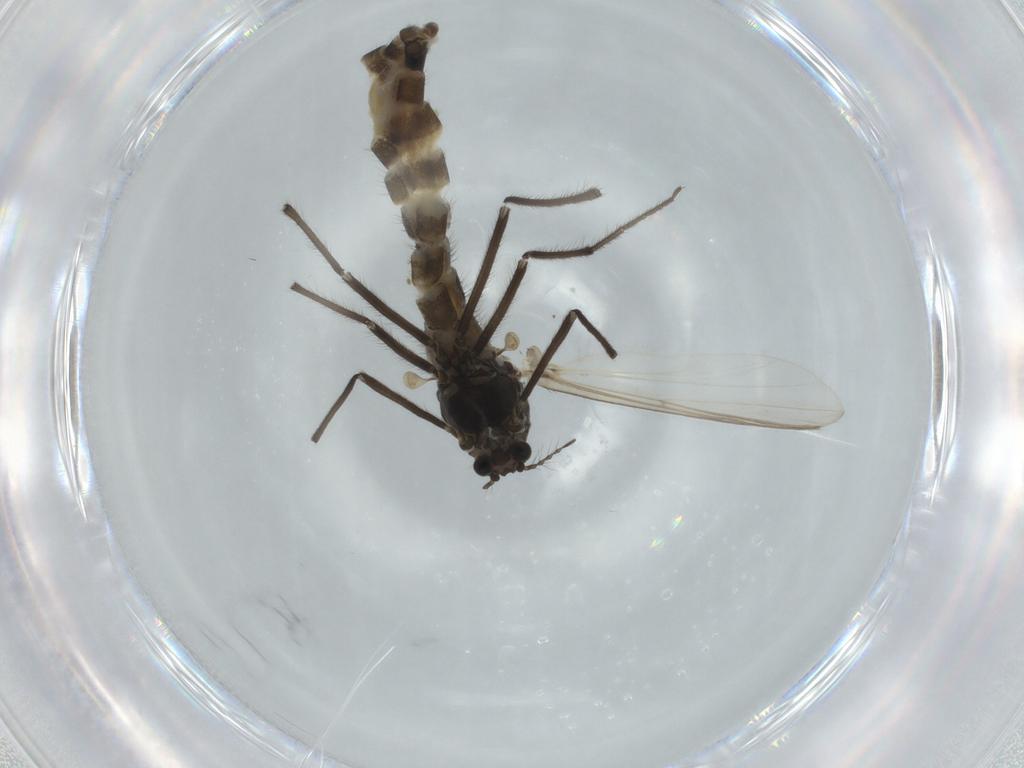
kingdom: Animalia
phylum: Arthropoda
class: Insecta
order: Diptera
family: Chironomidae
